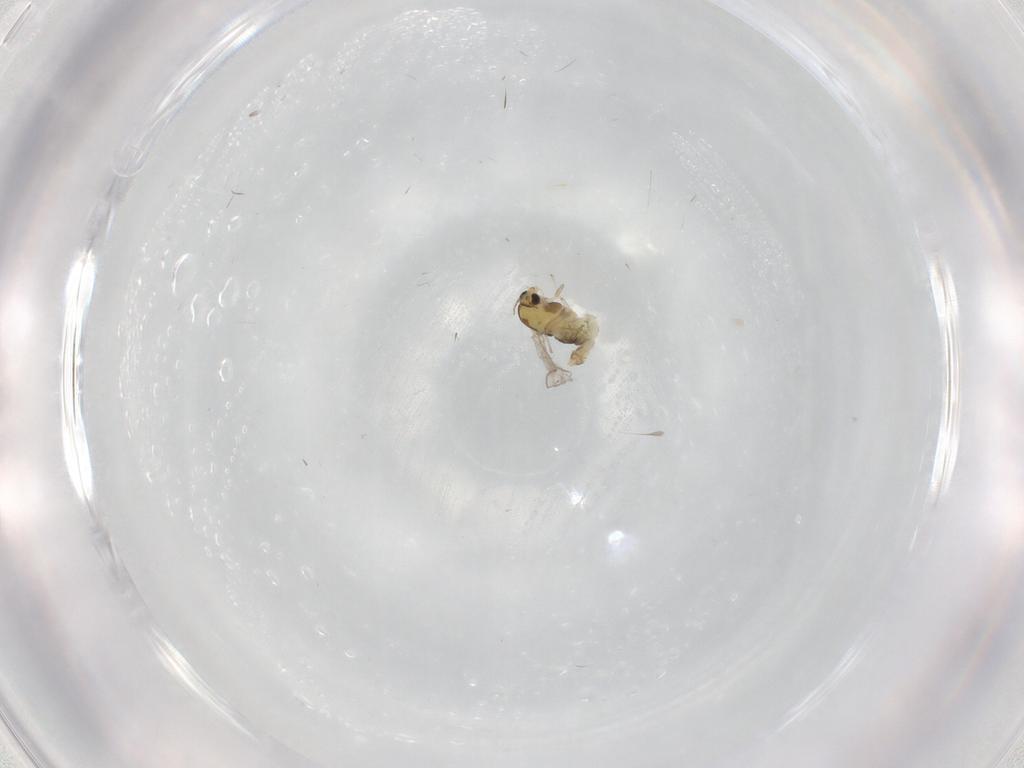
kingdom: Animalia
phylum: Arthropoda
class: Insecta
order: Diptera
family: Chironomidae
